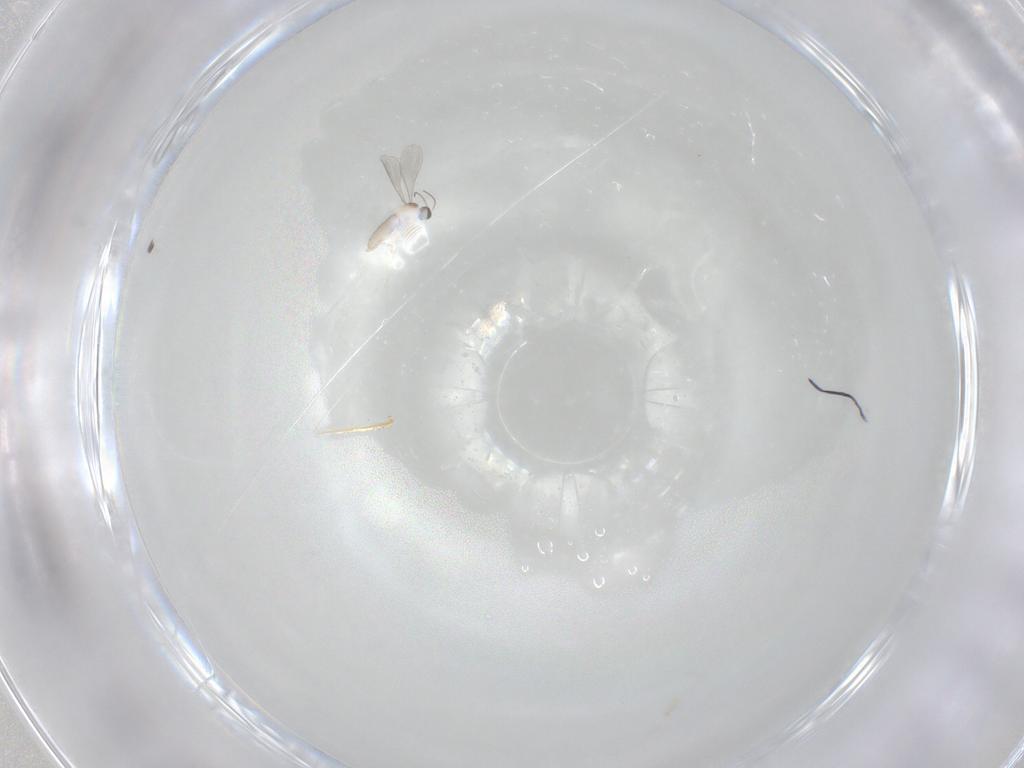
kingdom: Animalia
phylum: Arthropoda
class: Insecta
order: Diptera
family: Cecidomyiidae
